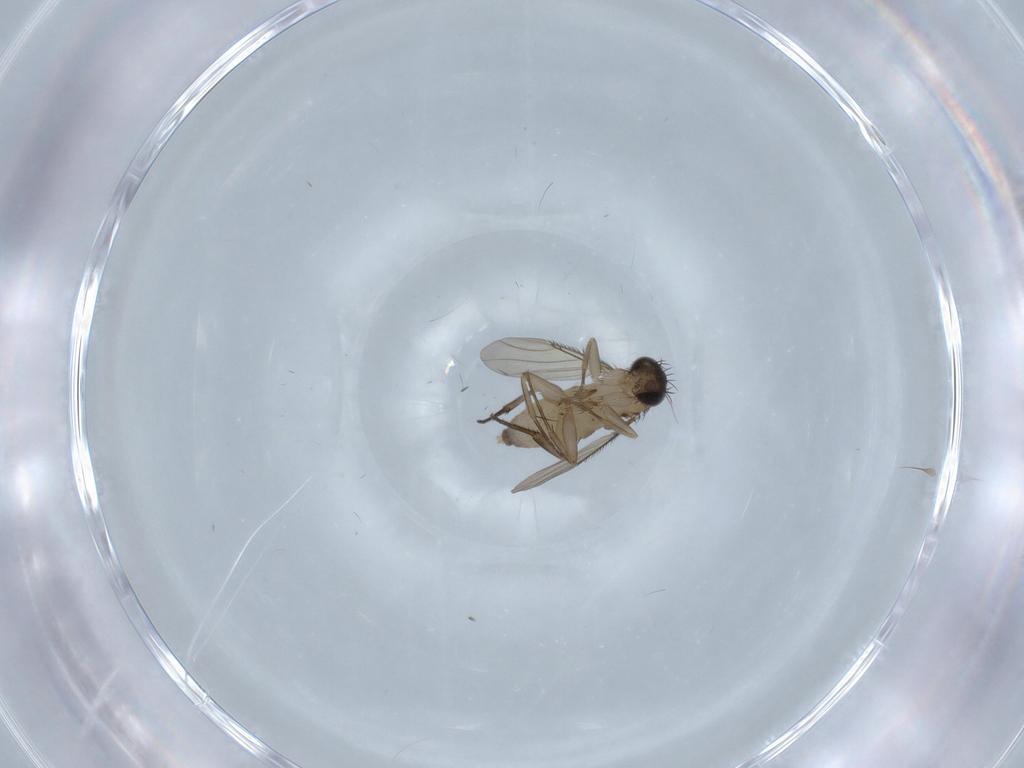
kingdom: Animalia
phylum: Arthropoda
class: Insecta
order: Diptera
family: Phoridae
